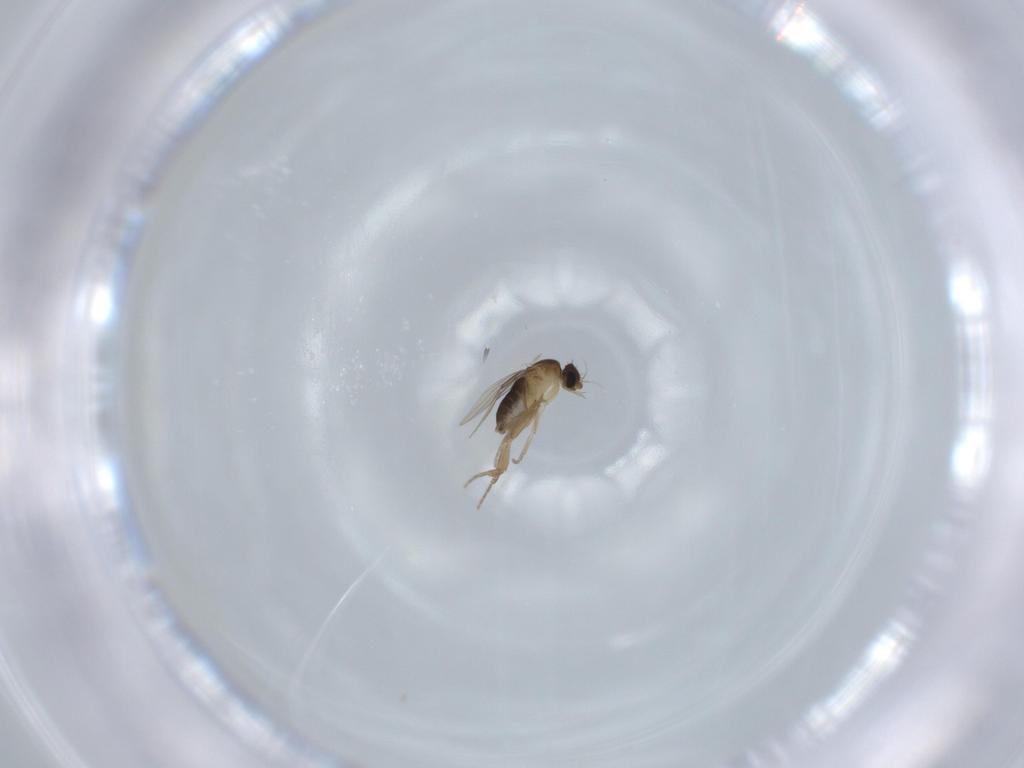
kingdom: Animalia
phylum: Arthropoda
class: Insecta
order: Diptera
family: Phoridae
